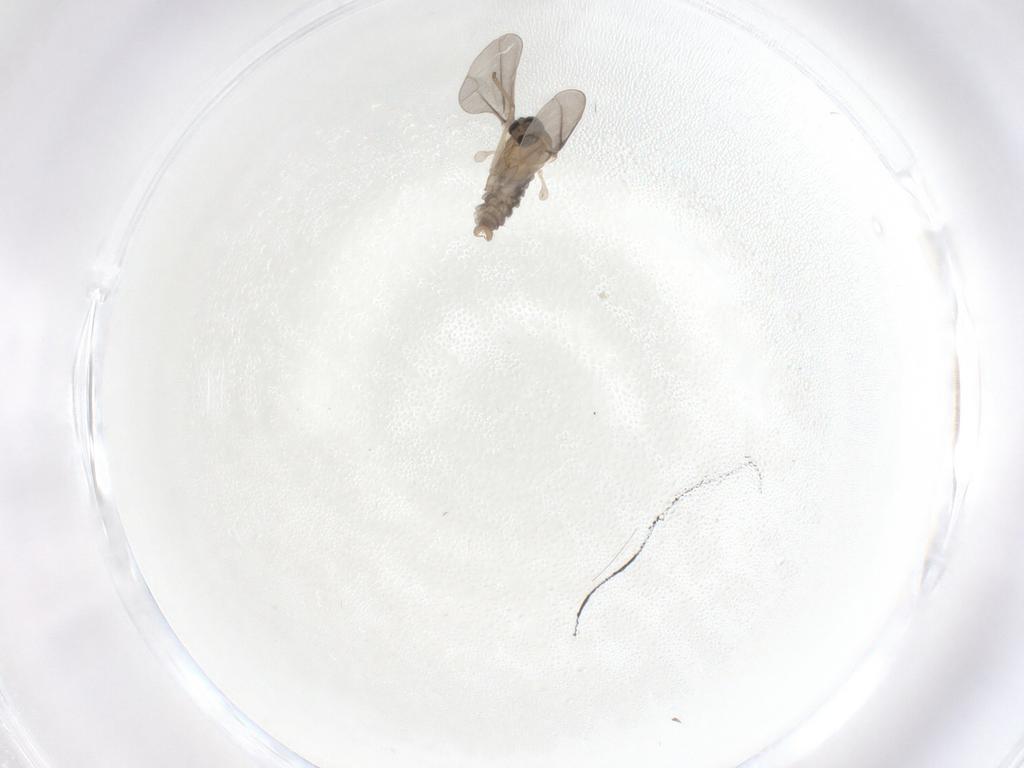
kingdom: Animalia
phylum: Arthropoda
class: Insecta
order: Diptera
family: Cecidomyiidae
